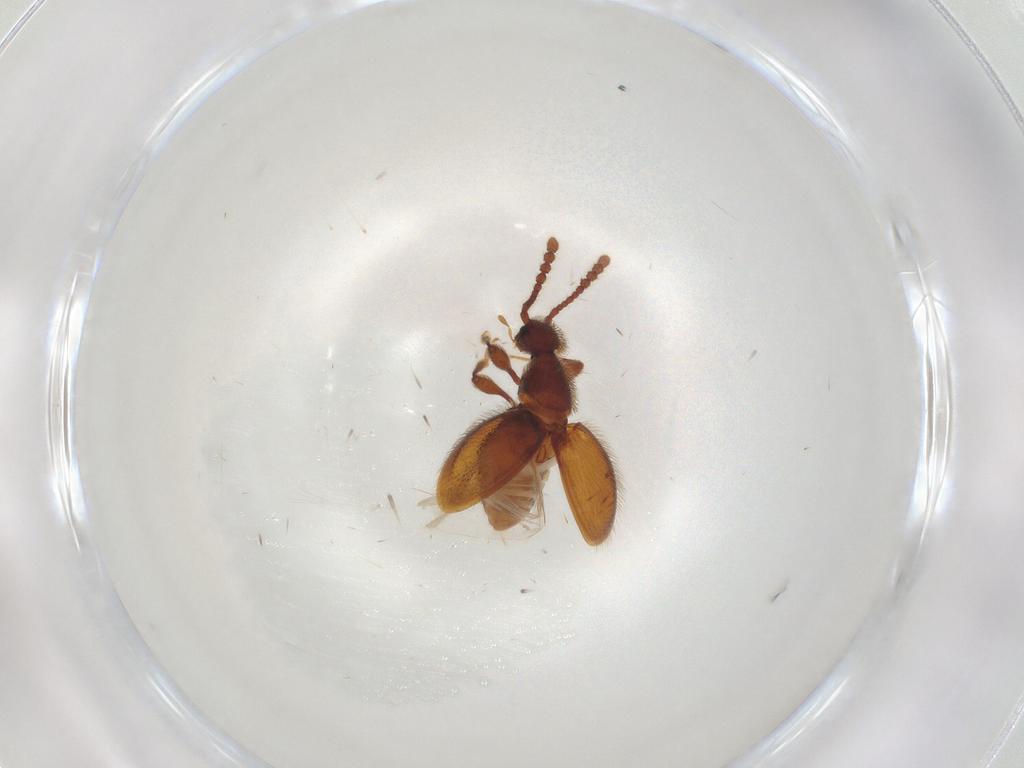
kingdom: Animalia
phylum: Arthropoda
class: Insecta
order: Coleoptera
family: Staphylinidae
